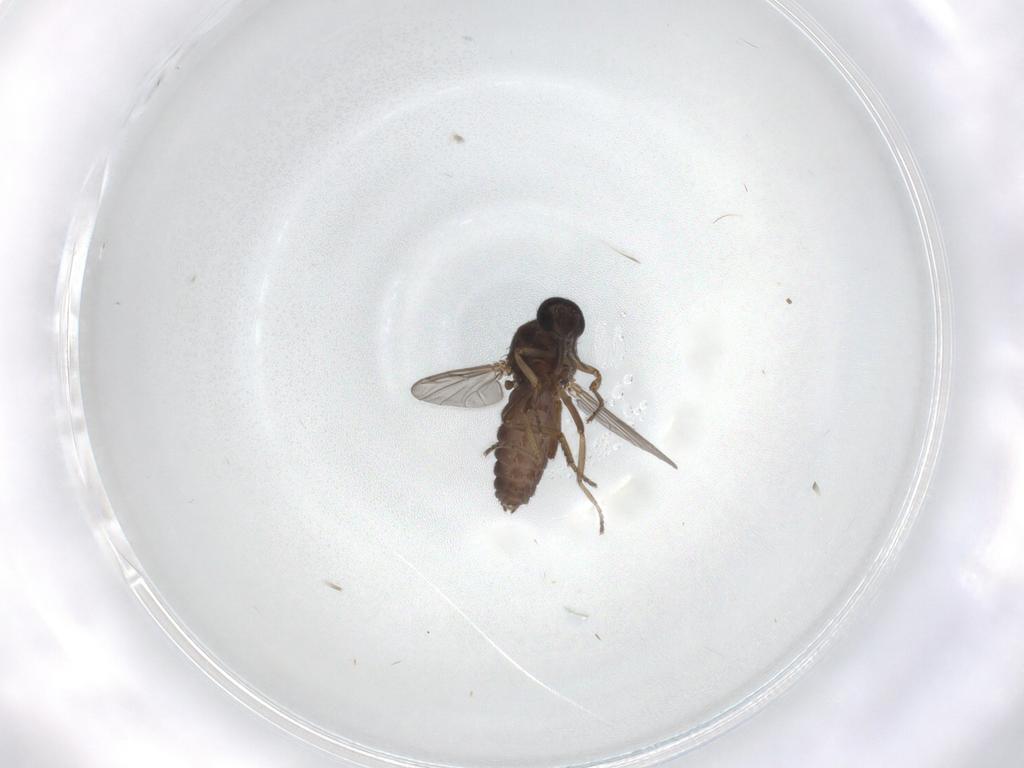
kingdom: Animalia
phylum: Arthropoda
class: Insecta
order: Diptera
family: Ceratopogonidae
